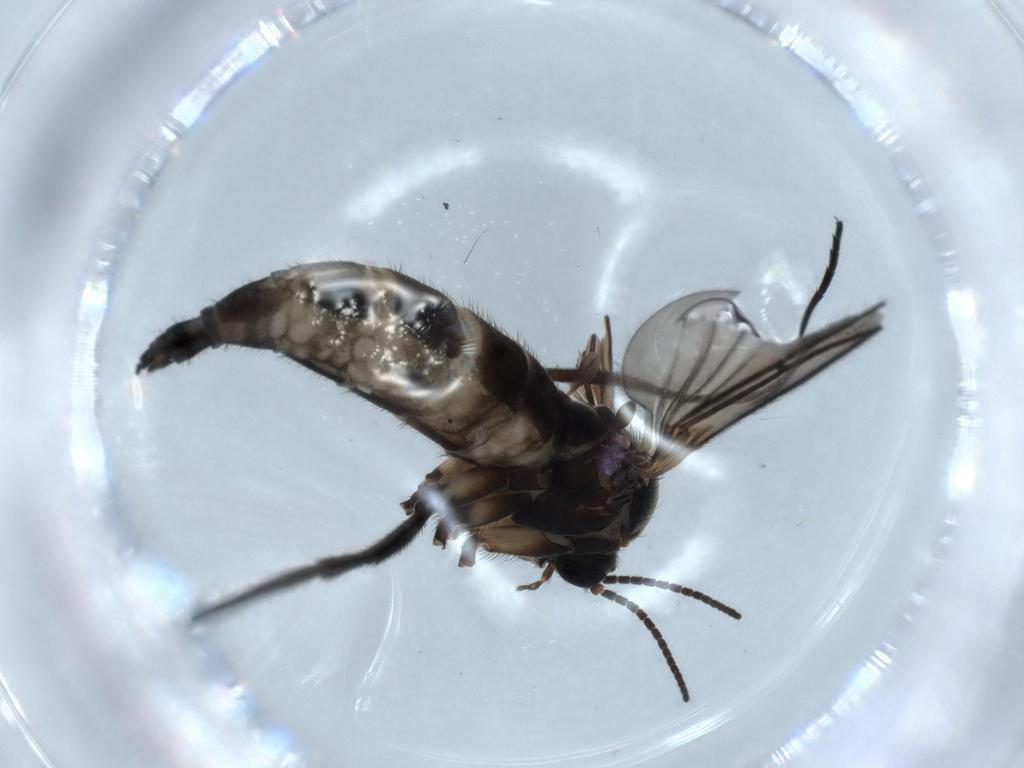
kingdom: Animalia
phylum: Arthropoda
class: Insecta
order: Diptera
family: Sciaridae
